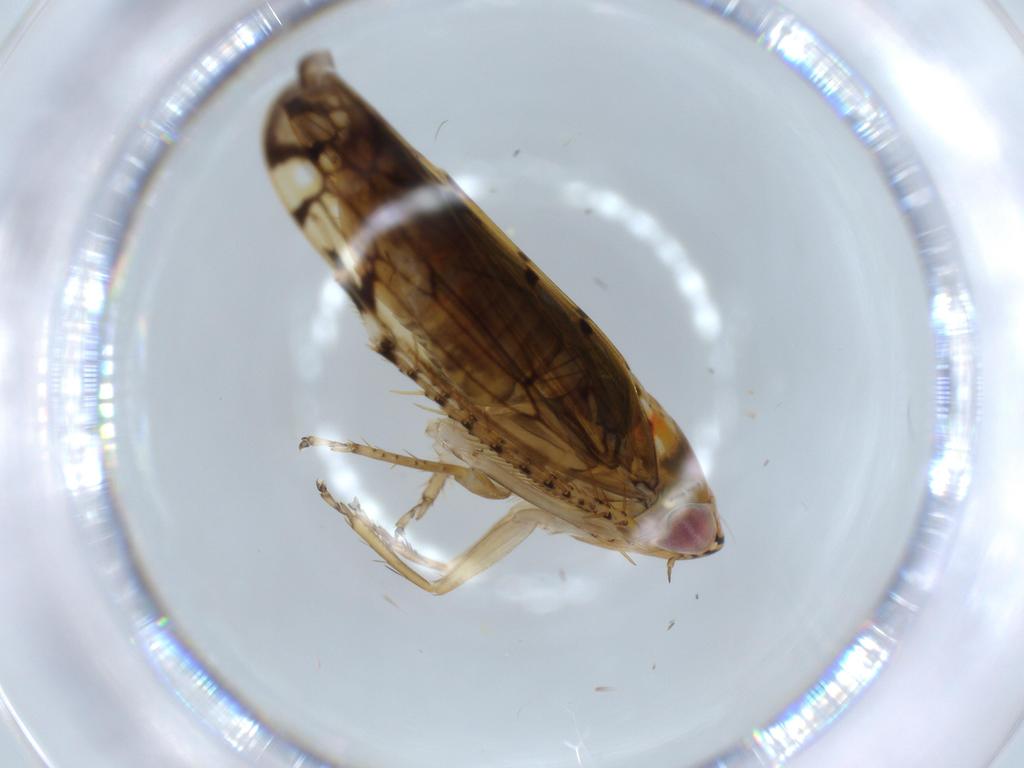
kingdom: Animalia
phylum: Arthropoda
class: Insecta
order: Hemiptera
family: Cicadellidae
